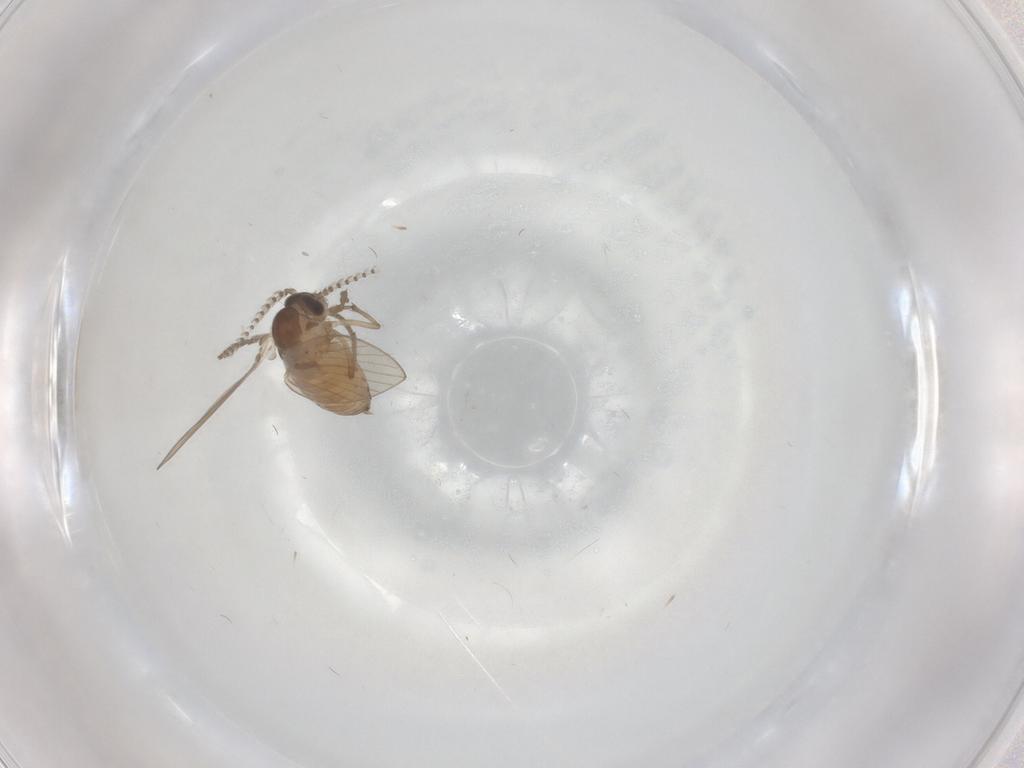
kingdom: Animalia
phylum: Arthropoda
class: Insecta
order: Diptera
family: Psychodidae
